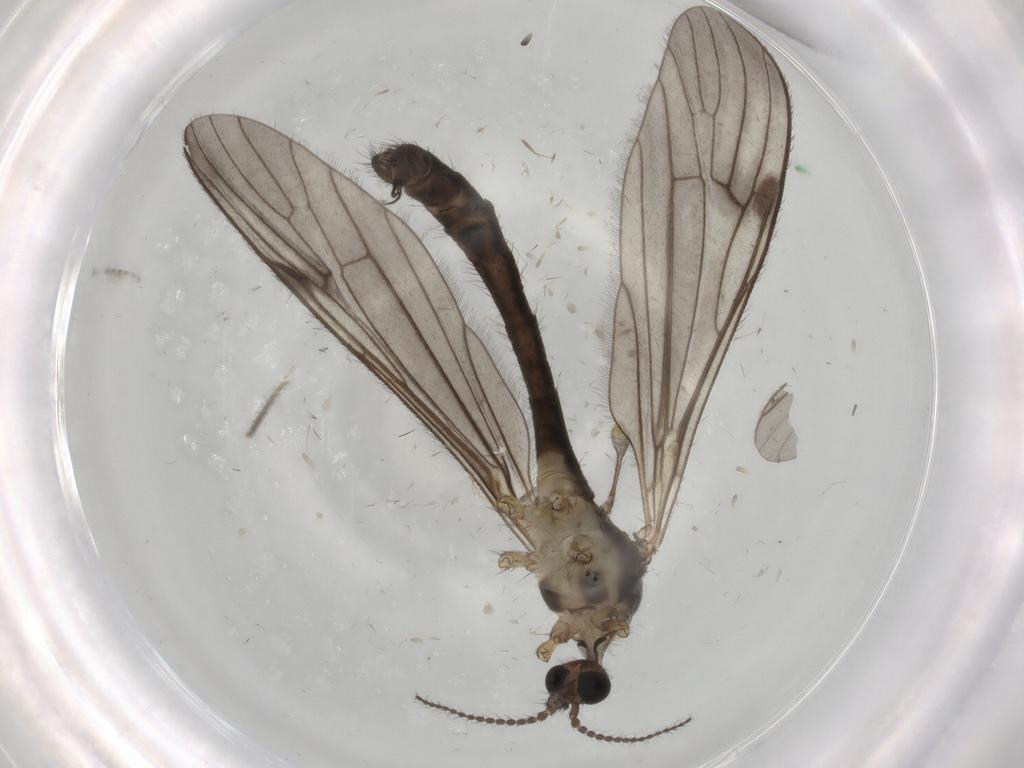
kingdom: Animalia
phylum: Arthropoda
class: Insecta
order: Diptera
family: Limoniidae
